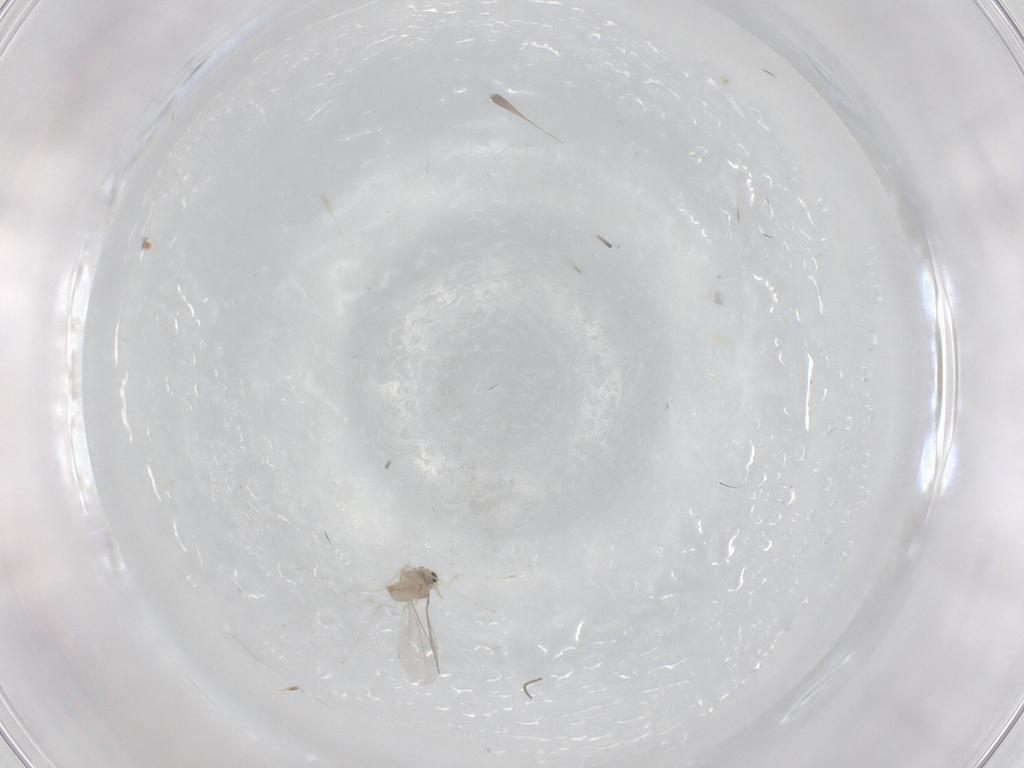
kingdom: Animalia
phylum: Arthropoda
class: Insecta
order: Diptera
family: Cecidomyiidae
